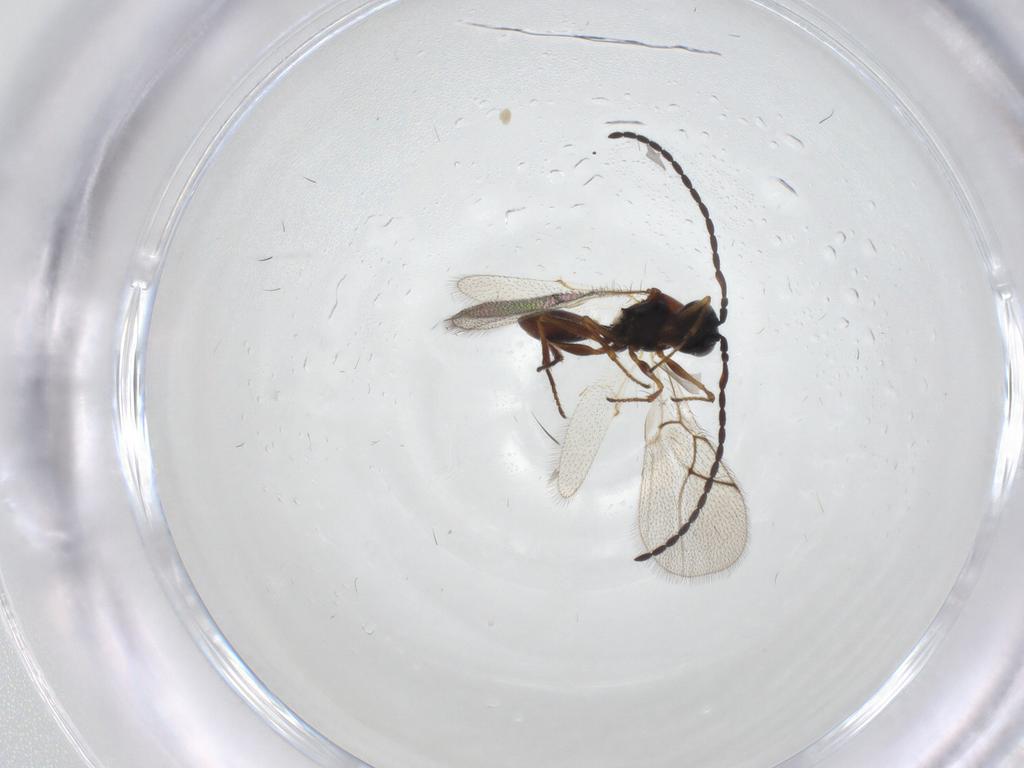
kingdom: Animalia
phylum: Arthropoda
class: Insecta
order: Hymenoptera
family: Figitidae
